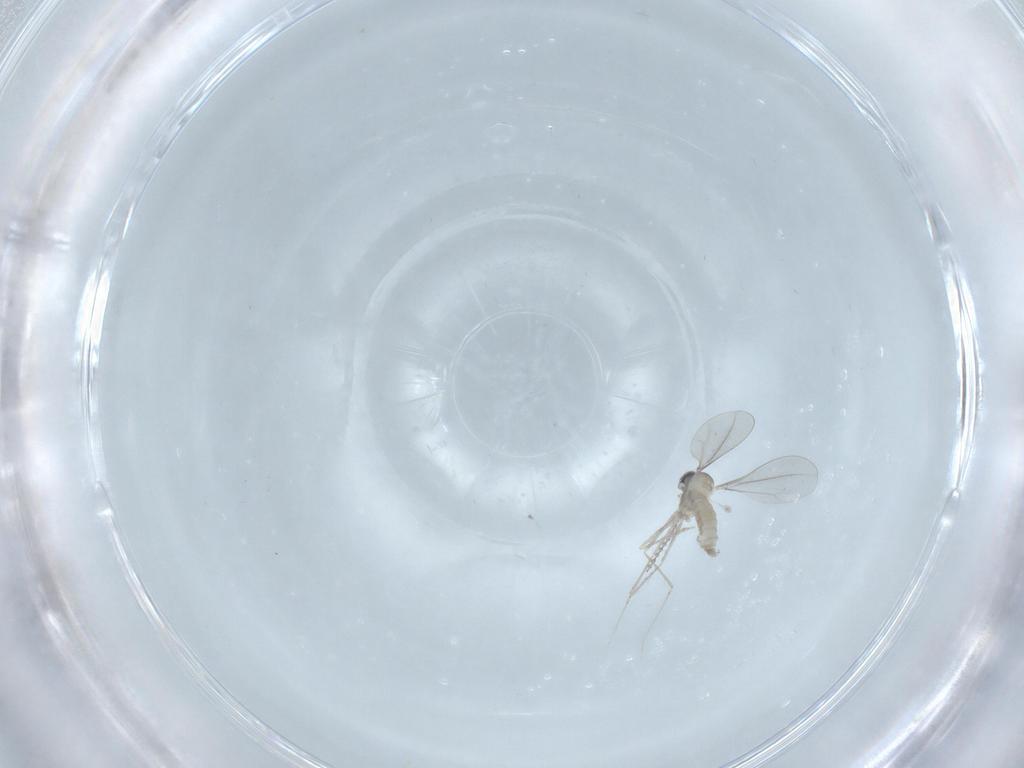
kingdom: Animalia
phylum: Arthropoda
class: Insecta
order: Diptera
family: Cecidomyiidae
